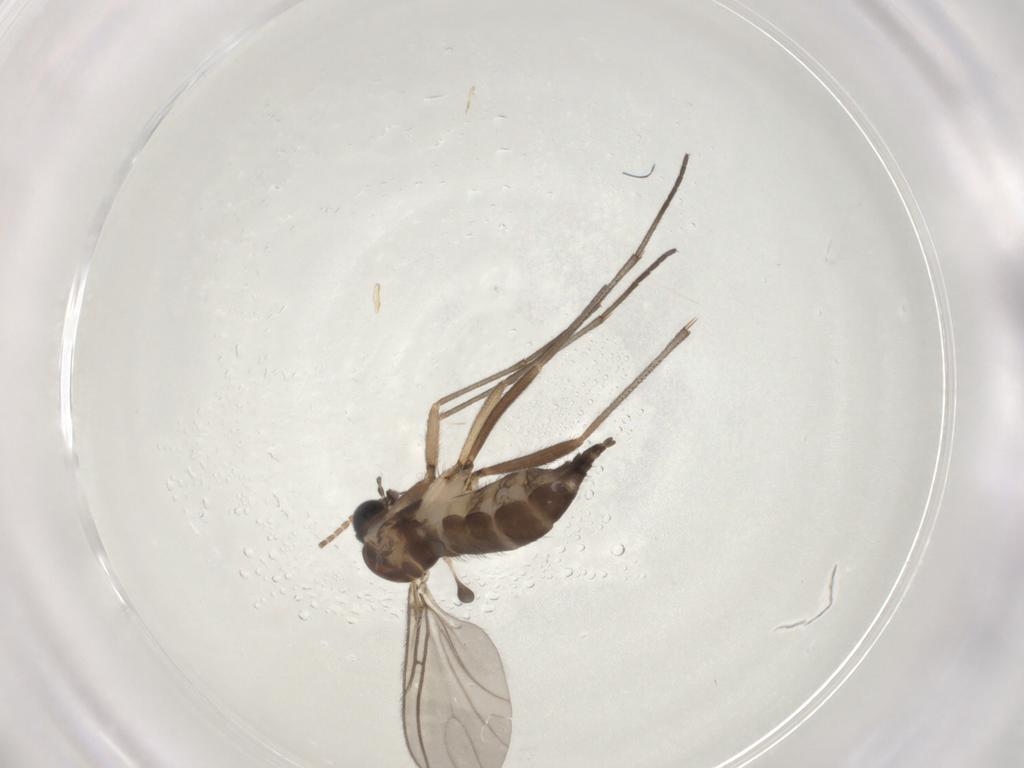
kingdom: Animalia
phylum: Arthropoda
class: Insecta
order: Diptera
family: Sciaridae
